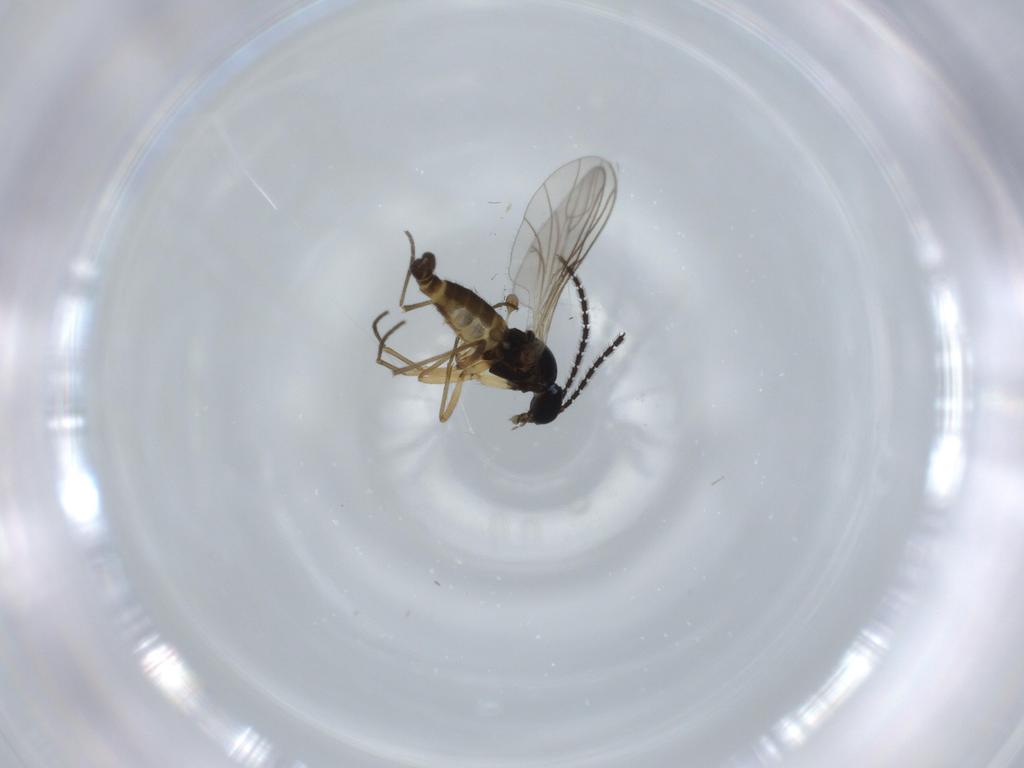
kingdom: Animalia
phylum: Arthropoda
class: Insecta
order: Diptera
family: Sciaridae
